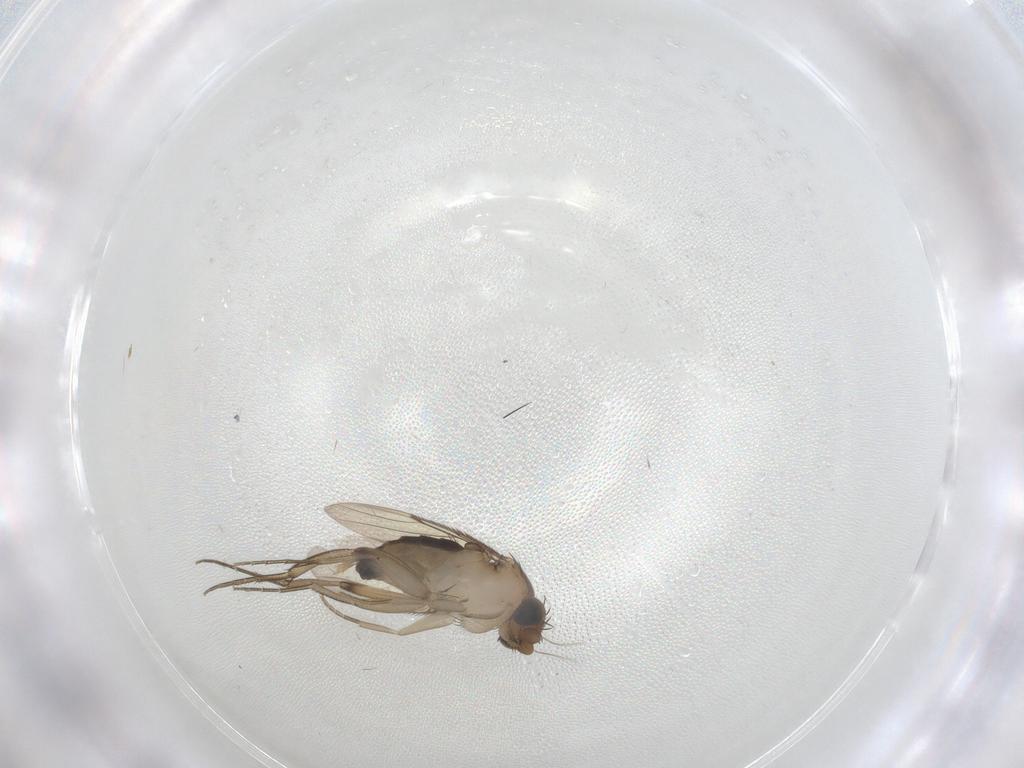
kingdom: Animalia
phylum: Arthropoda
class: Insecta
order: Diptera
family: Phoridae
